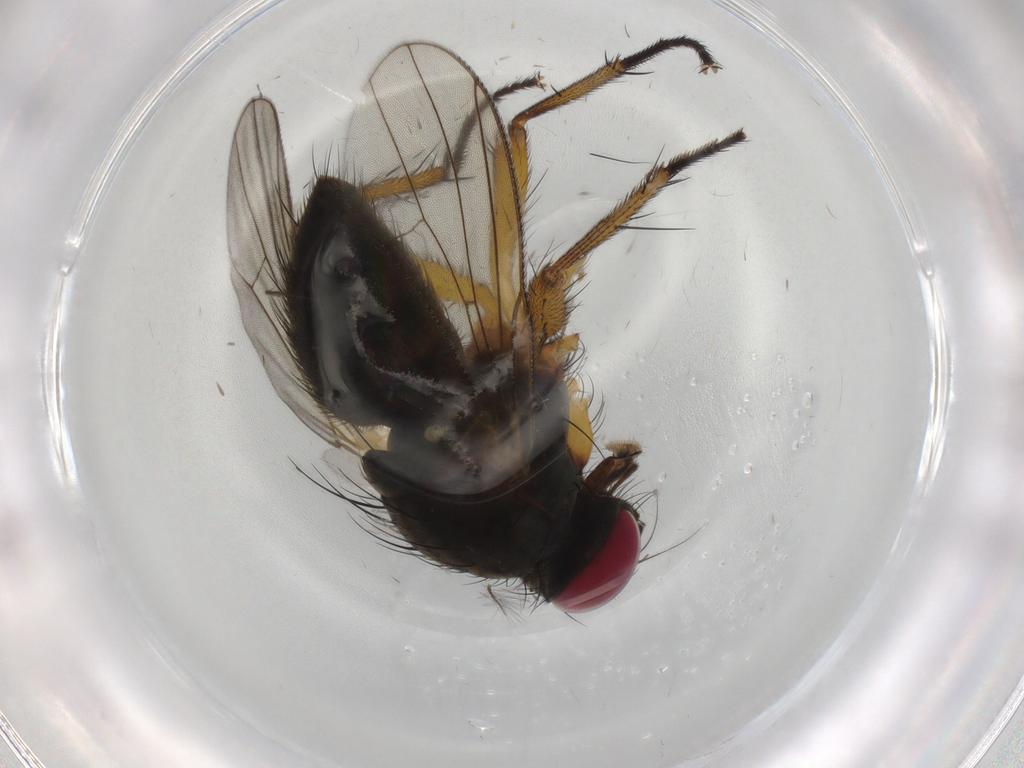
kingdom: Animalia
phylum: Arthropoda
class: Insecta
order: Diptera
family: Muscidae
